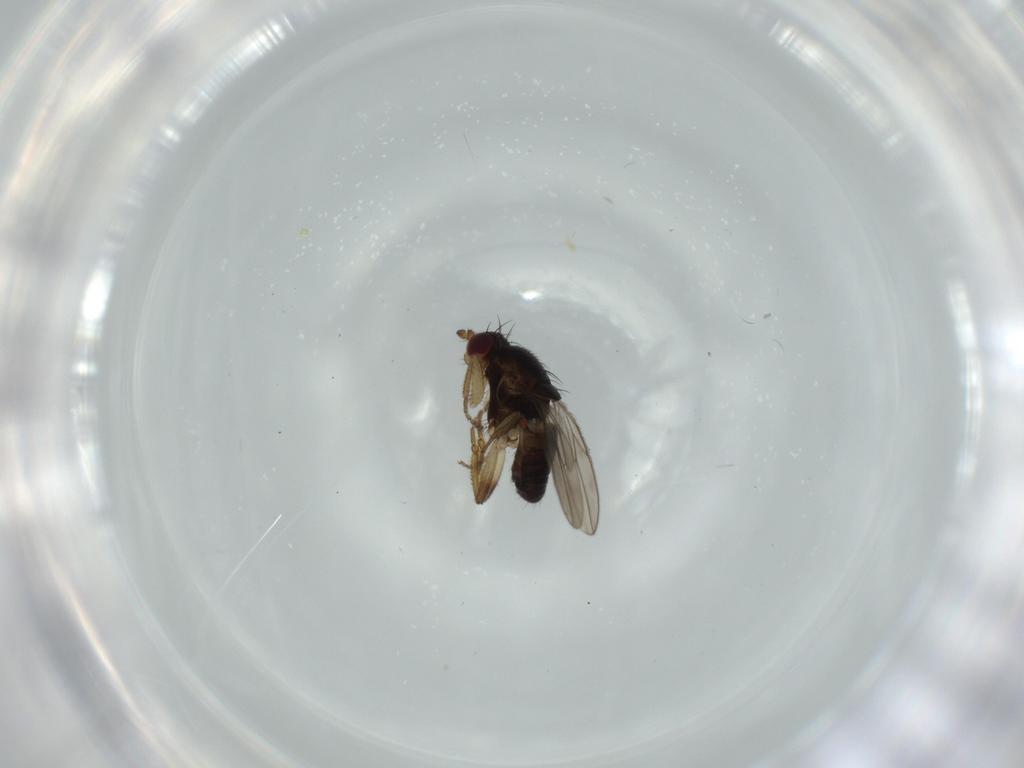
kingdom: Animalia
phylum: Arthropoda
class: Insecta
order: Diptera
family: Sphaeroceridae
